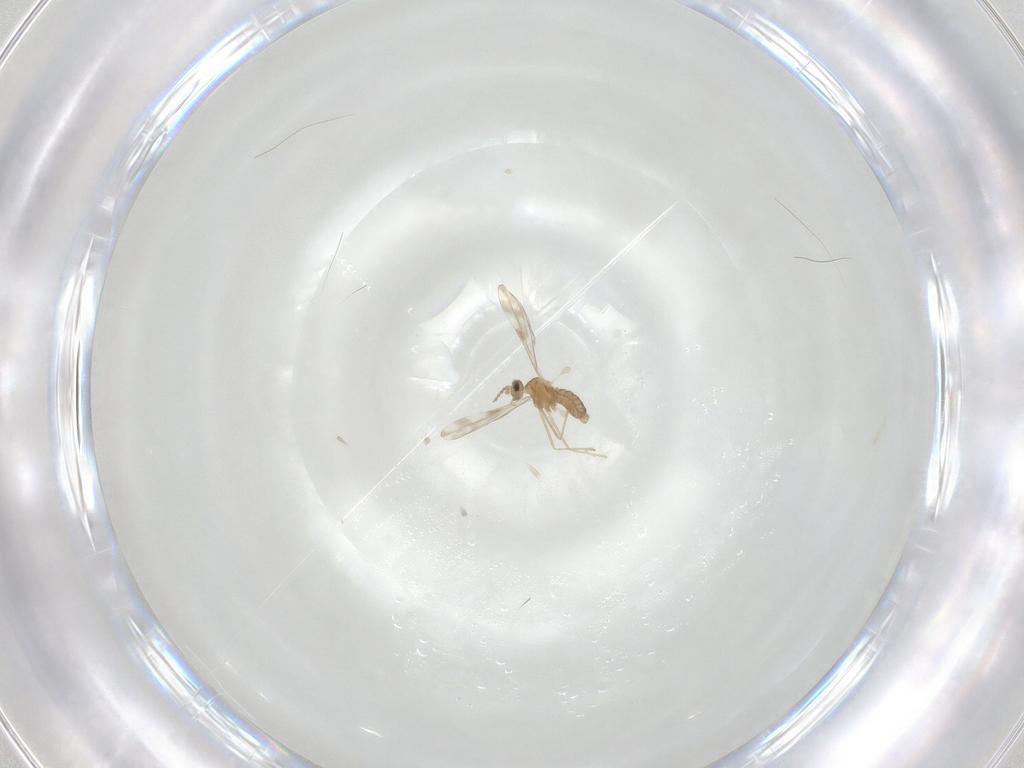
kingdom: Animalia
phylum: Arthropoda
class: Insecta
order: Diptera
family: Cecidomyiidae
